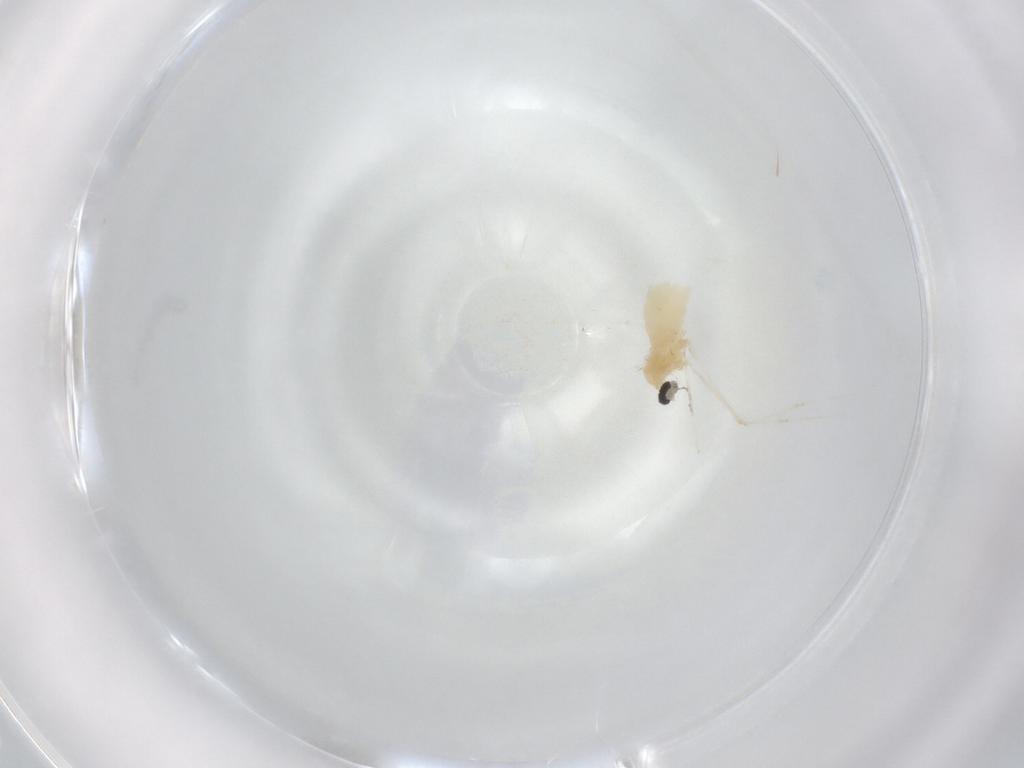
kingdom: Animalia
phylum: Arthropoda
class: Insecta
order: Diptera
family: Cecidomyiidae
